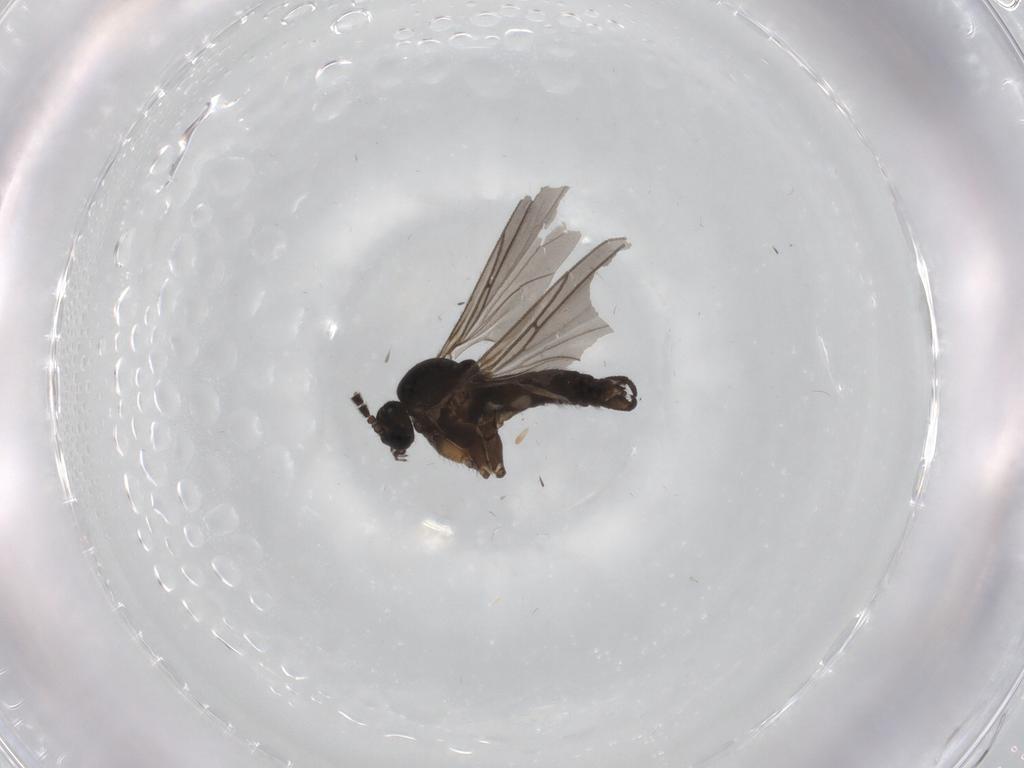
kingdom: Animalia
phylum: Arthropoda
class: Insecta
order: Diptera
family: Sciaridae
